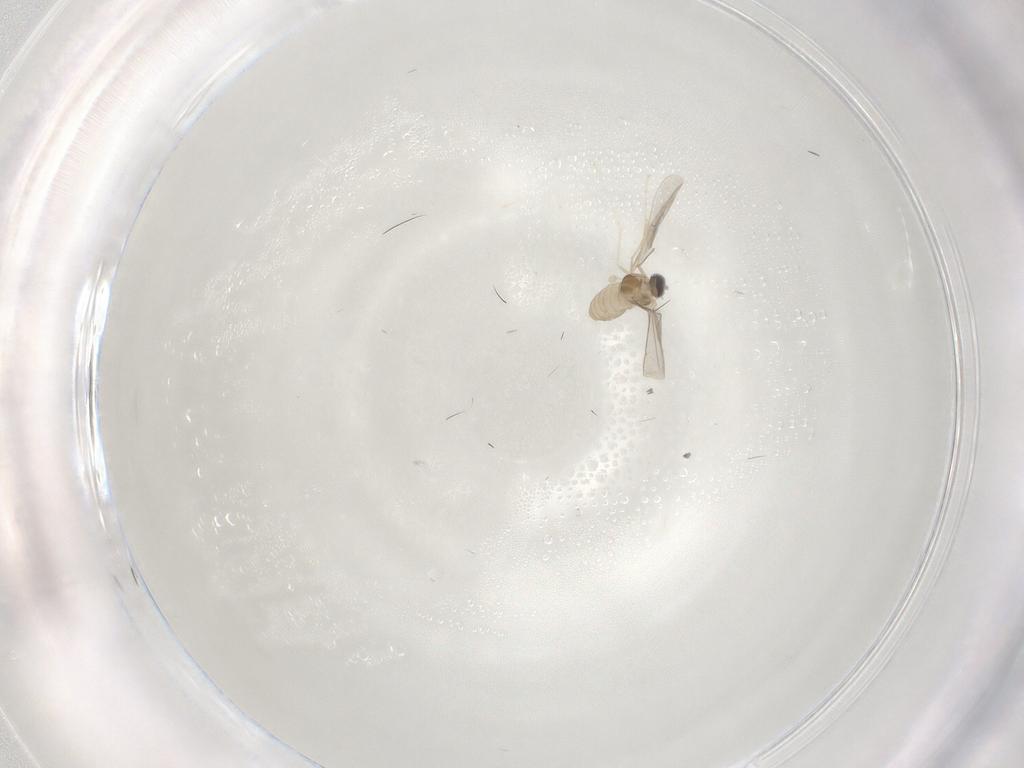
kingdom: Animalia
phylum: Arthropoda
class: Insecta
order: Diptera
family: Cecidomyiidae
